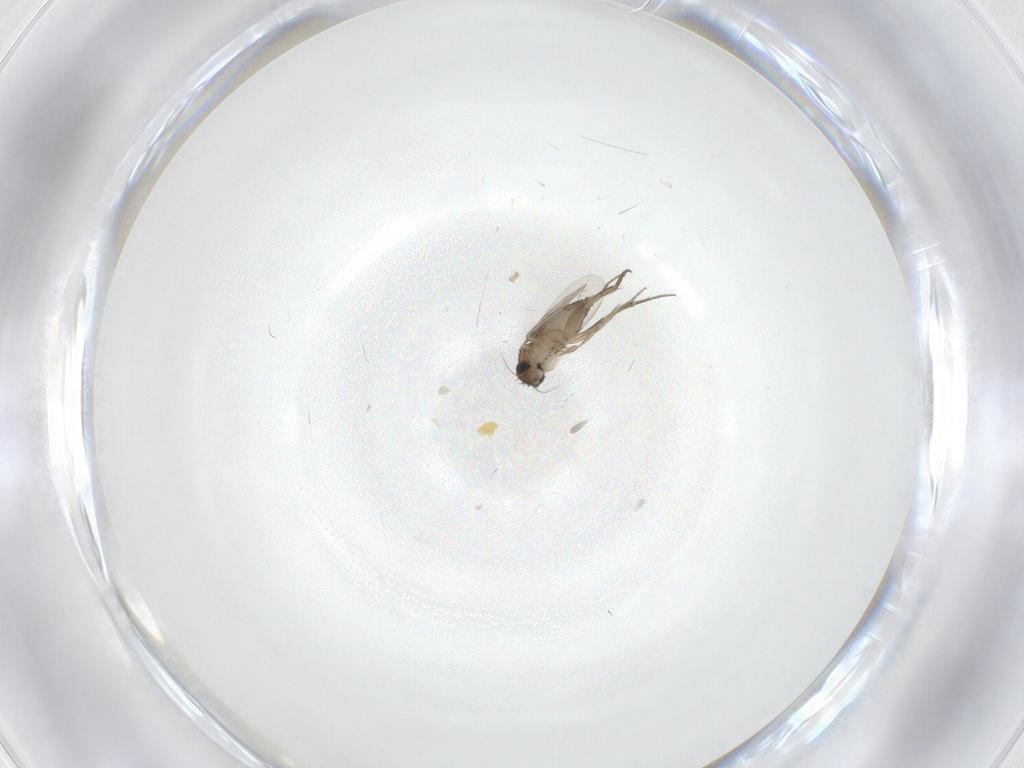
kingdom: Animalia
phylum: Arthropoda
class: Insecta
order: Diptera
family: Phoridae
